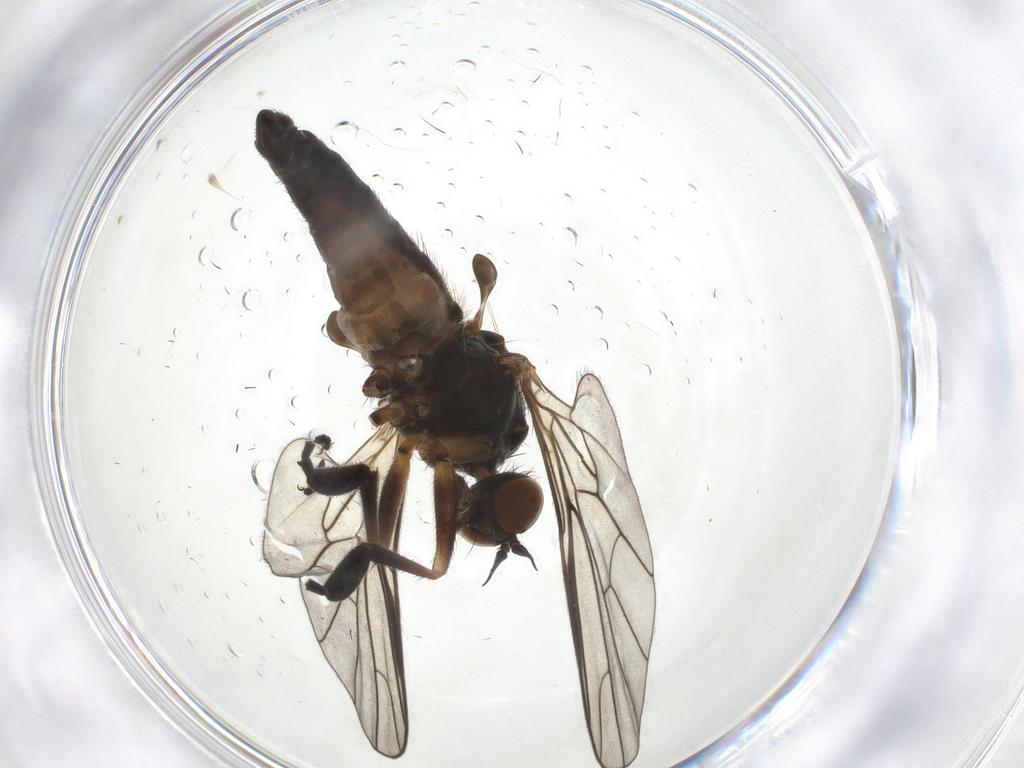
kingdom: Animalia
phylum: Arthropoda
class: Insecta
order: Diptera
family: Empididae
